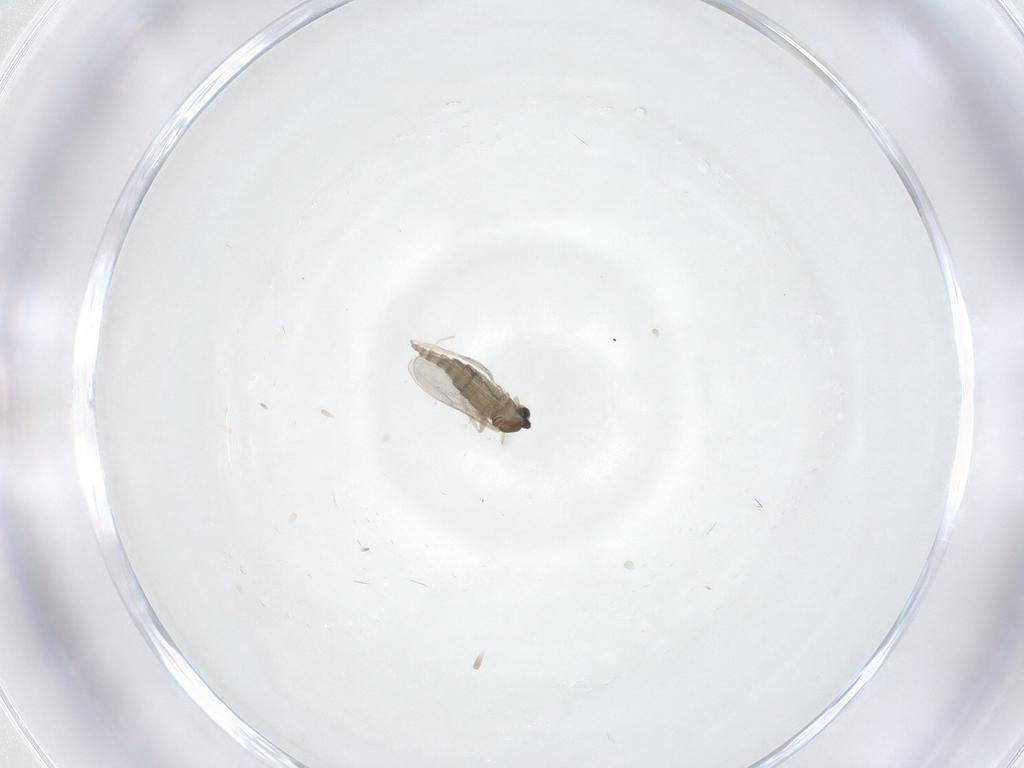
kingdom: Animalia
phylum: Arthropoda
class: Insecta
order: Diptera
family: Cecidomyiidae
